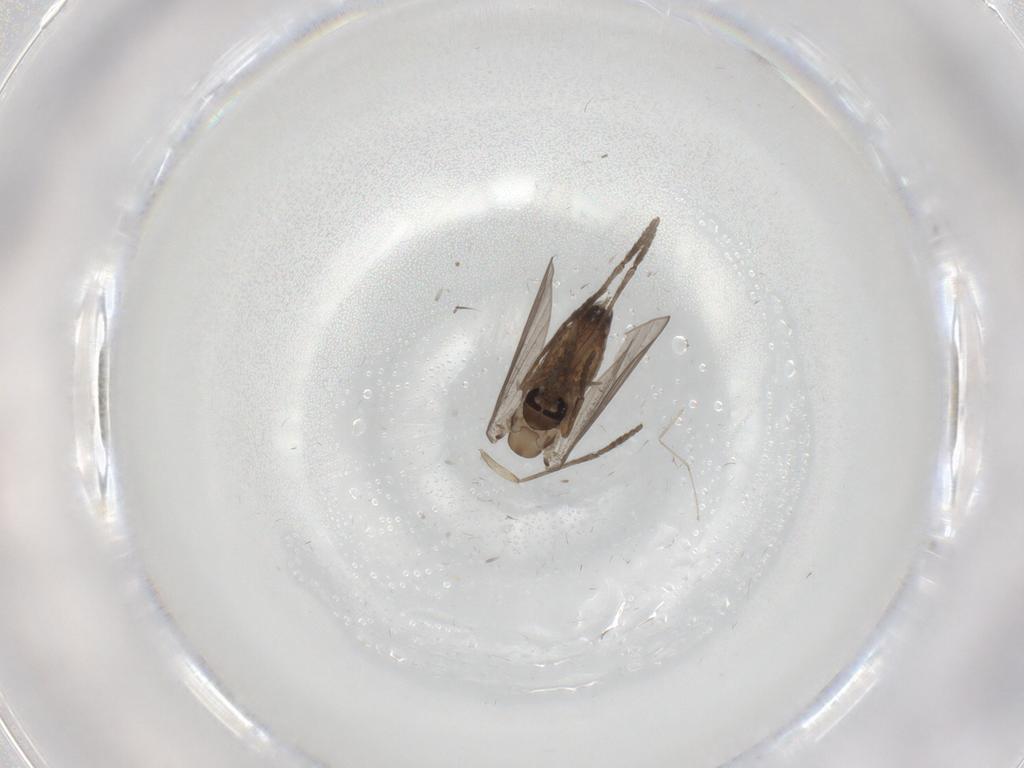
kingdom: Animalia
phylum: Arthropoda
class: Insecta
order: Diptera
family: Psychodidae
